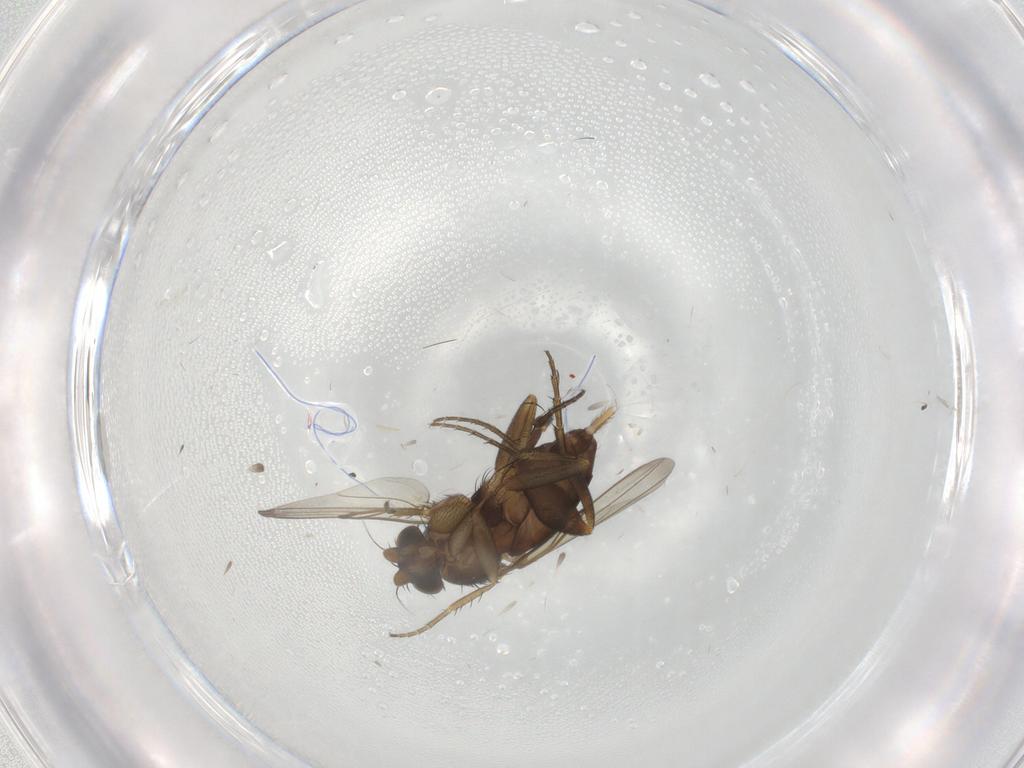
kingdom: Animalia
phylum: Arthropoda
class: Insecta
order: Diptera
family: Phoridae
